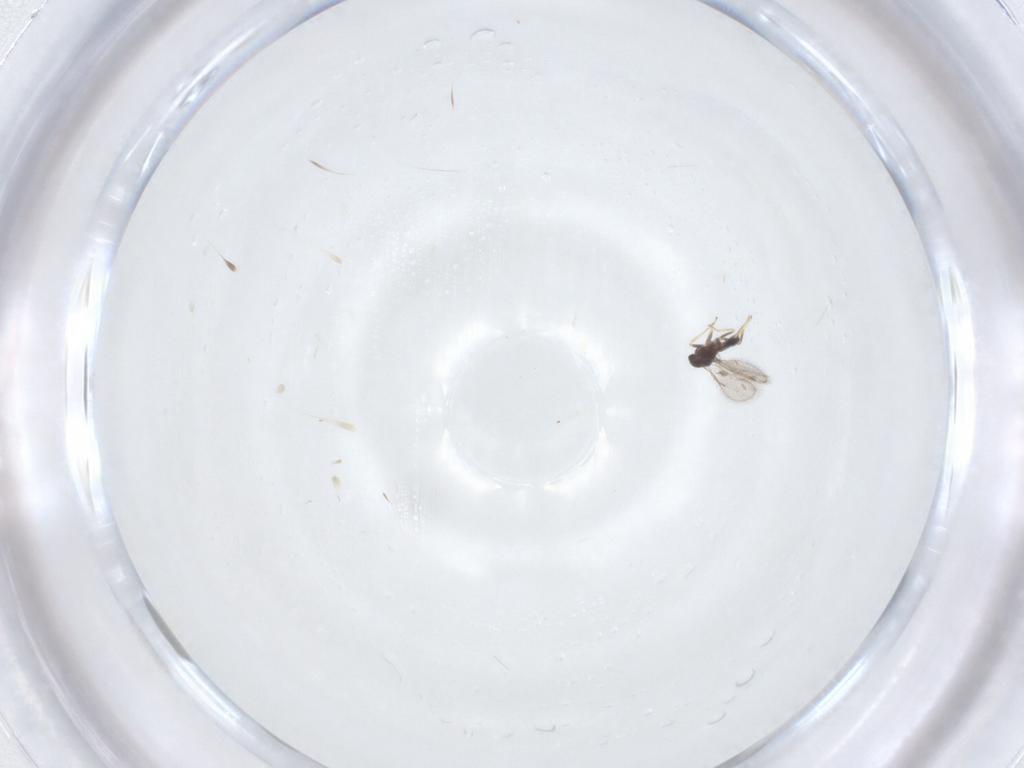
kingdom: Animalia
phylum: Arthropoda
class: Insecta
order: Hymenoptera
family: Eulophidae
